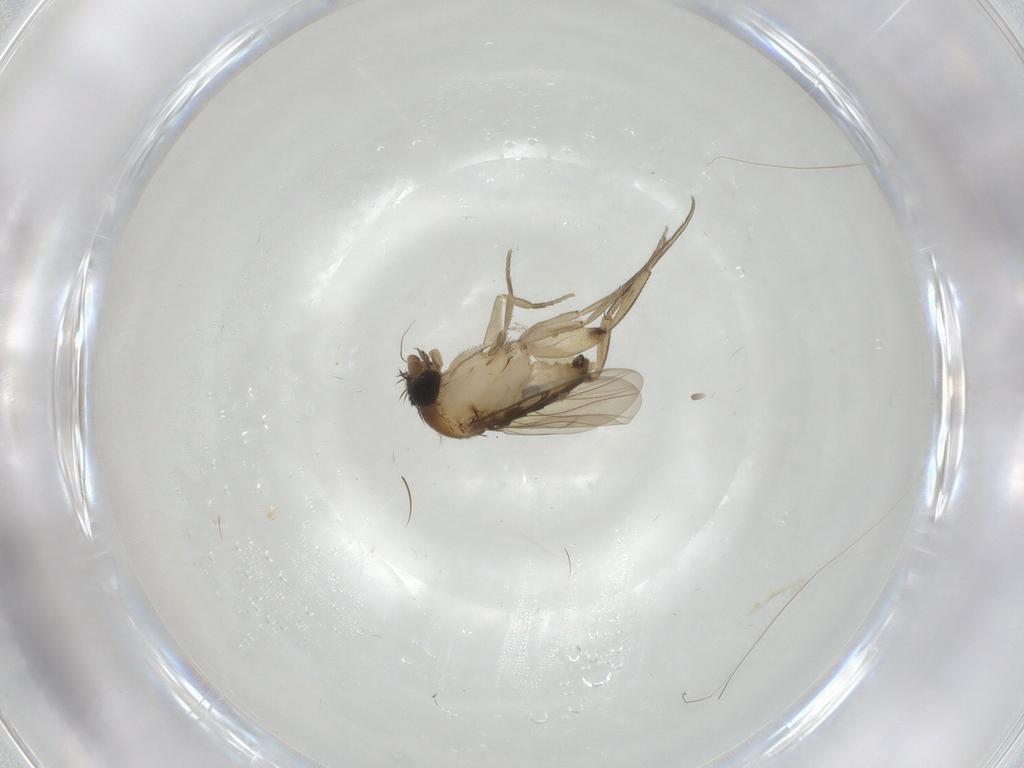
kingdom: Animalia
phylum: Arthropoda
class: Insecta
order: Diptera
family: Phoridae
